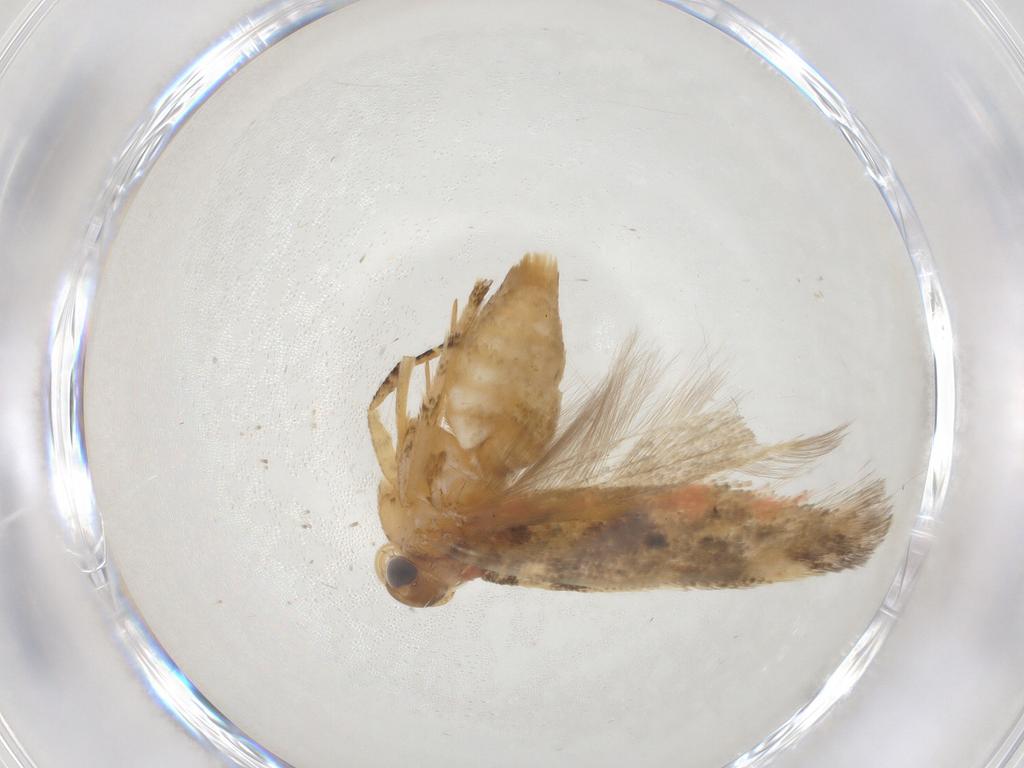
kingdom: Animalia
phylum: Arthropoda
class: Insecta
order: Lepidoptera
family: Gelechiidae
